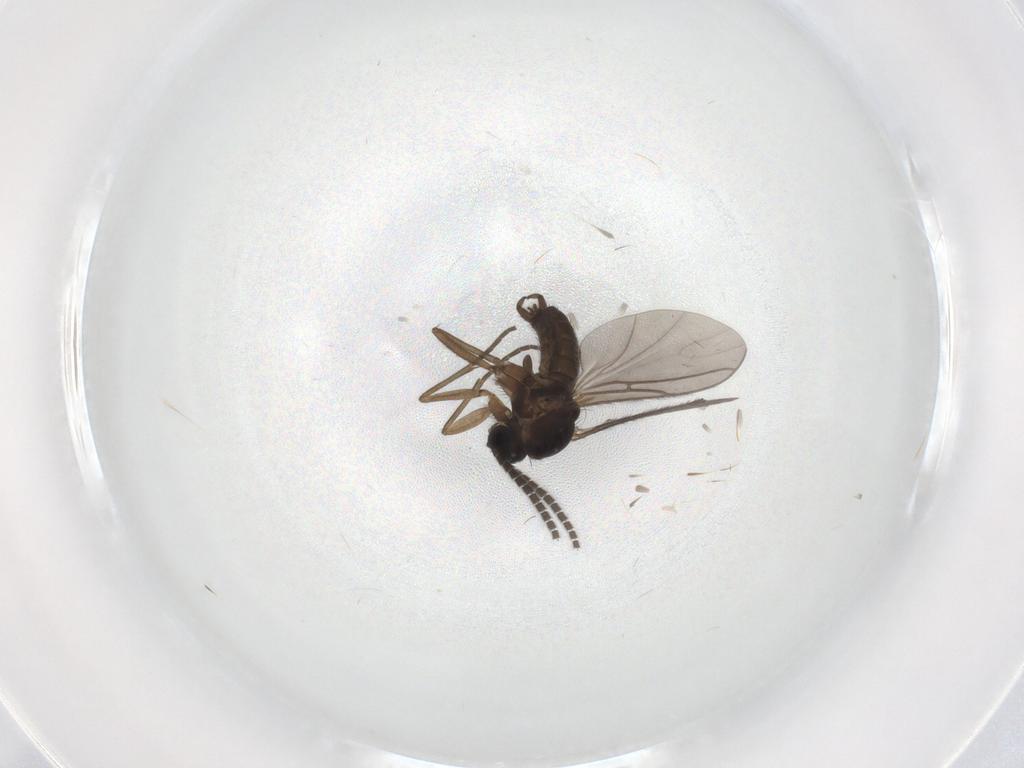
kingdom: Animalia
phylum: Arthropoda
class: Insecta
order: Diptera
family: Sciaridae
